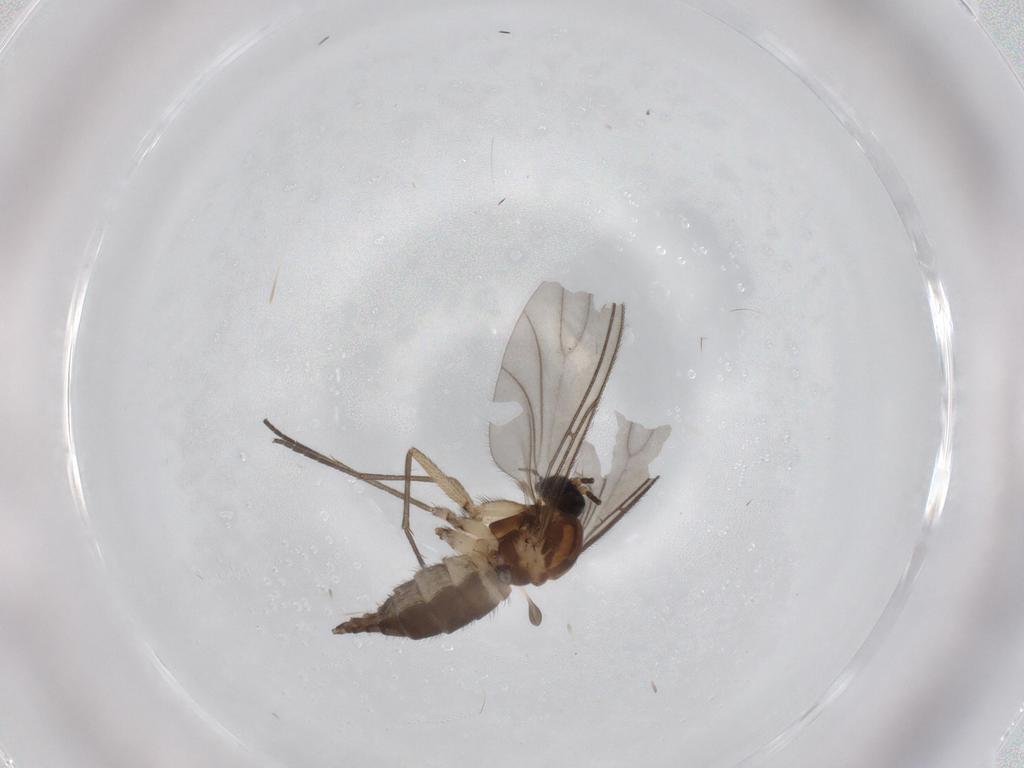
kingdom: Animalia
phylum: Arthropoda
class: Insecta
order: Diptera
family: Sciaridae
